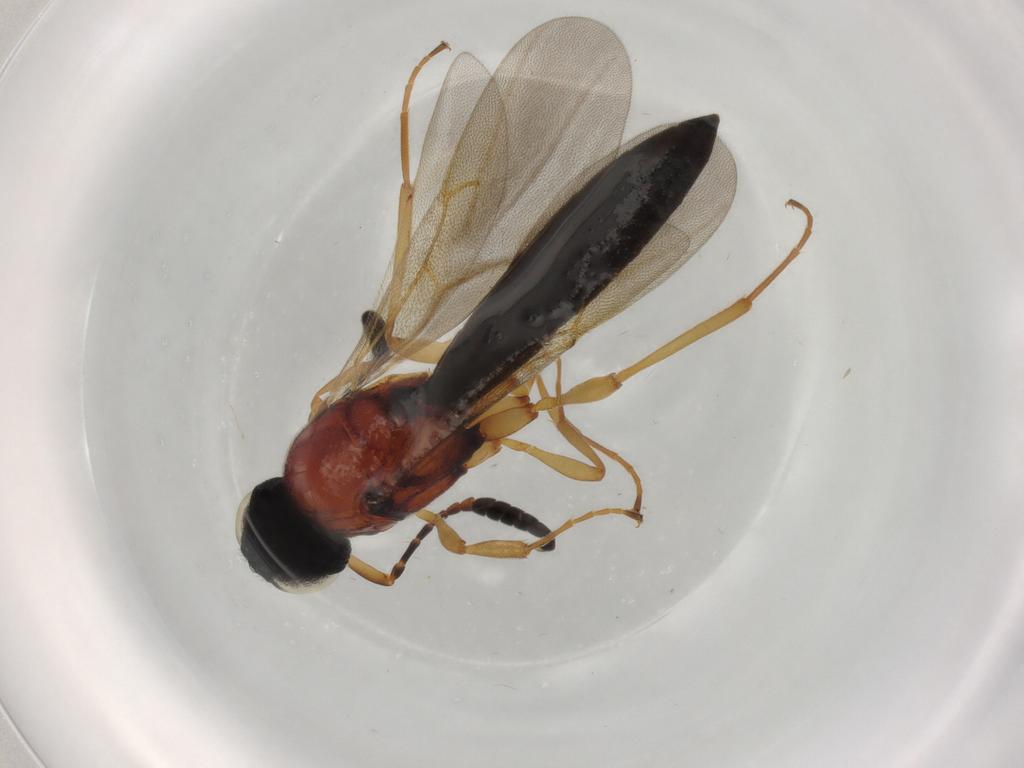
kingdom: Animalia
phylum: Arthropoda
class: Insecta
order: Hymenoptera
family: Scelionidae
